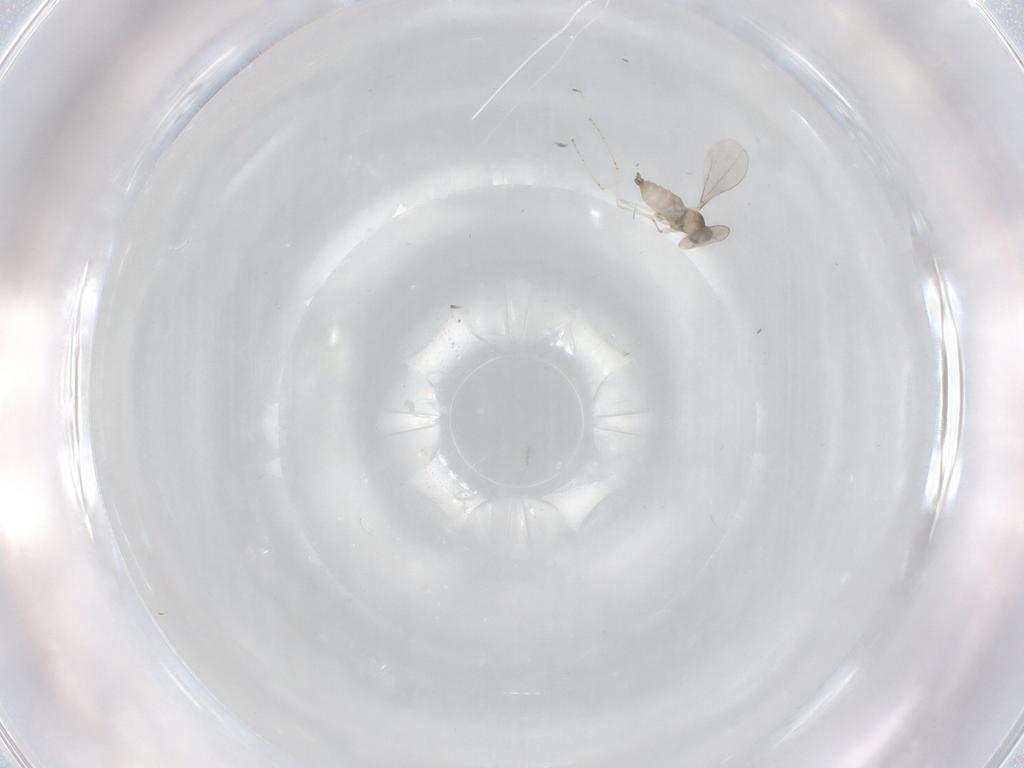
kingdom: Animalia
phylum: Arthropoda
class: Insecta
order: Diptera
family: Cecidomyiidae
